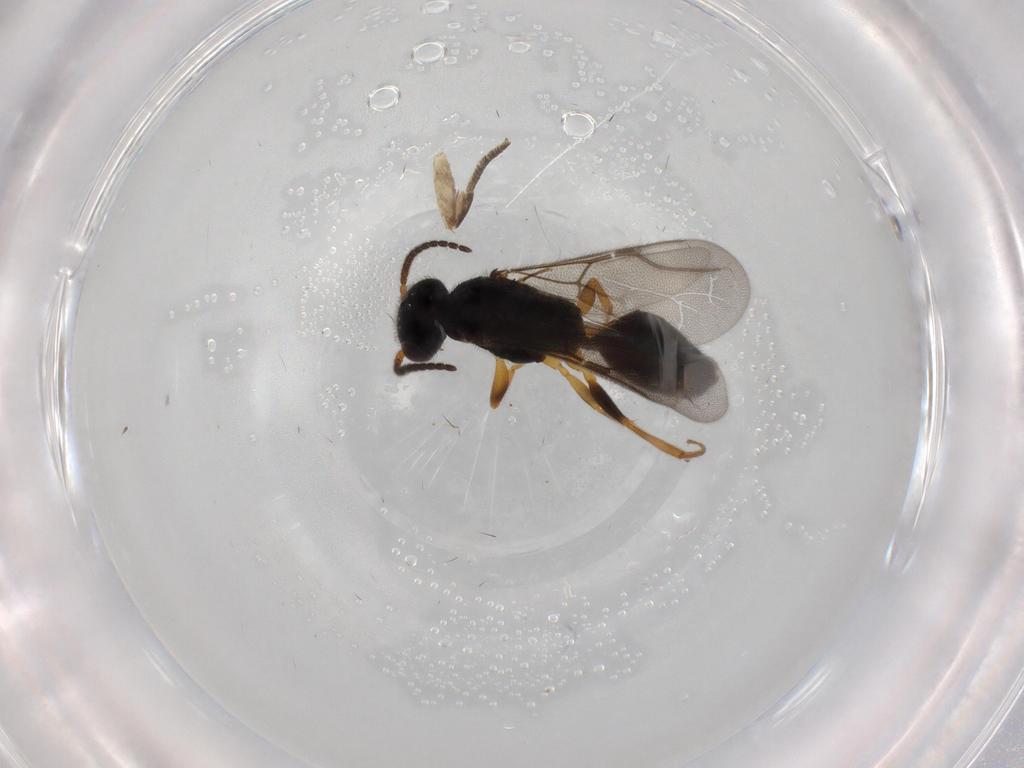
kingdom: Animalia
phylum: Arthropoda
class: Insecta
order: Hymenoptera
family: Bethylidae
